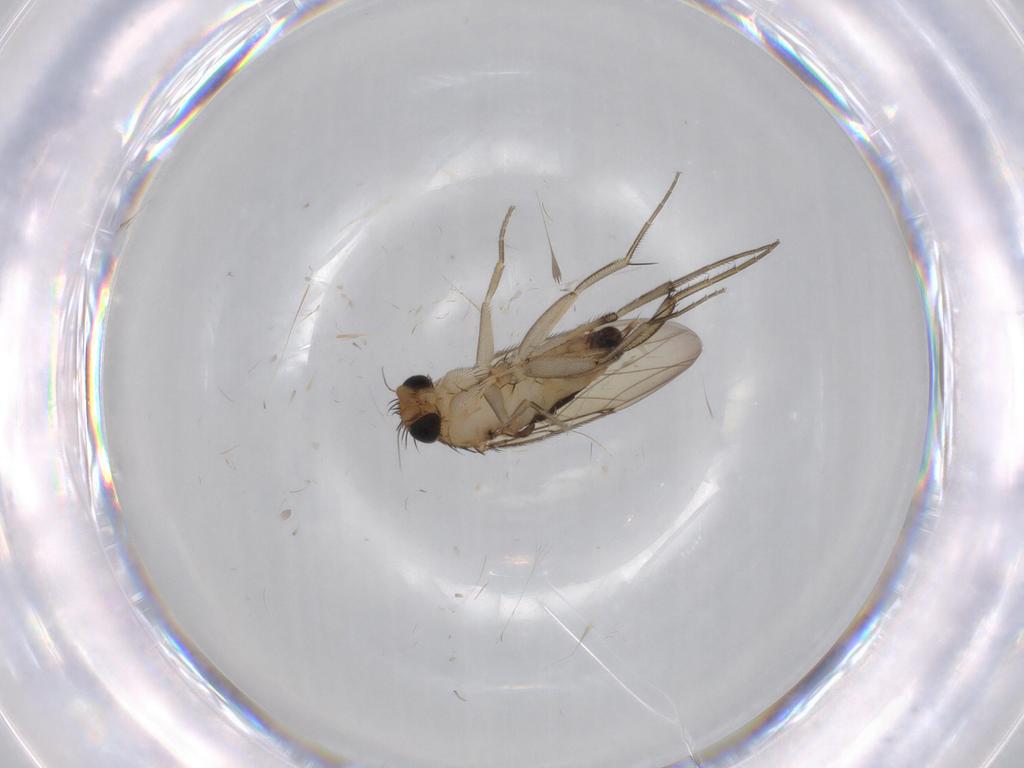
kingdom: Animalia
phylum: Arthropoda
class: Insecta
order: Diptera
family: Phoridae
